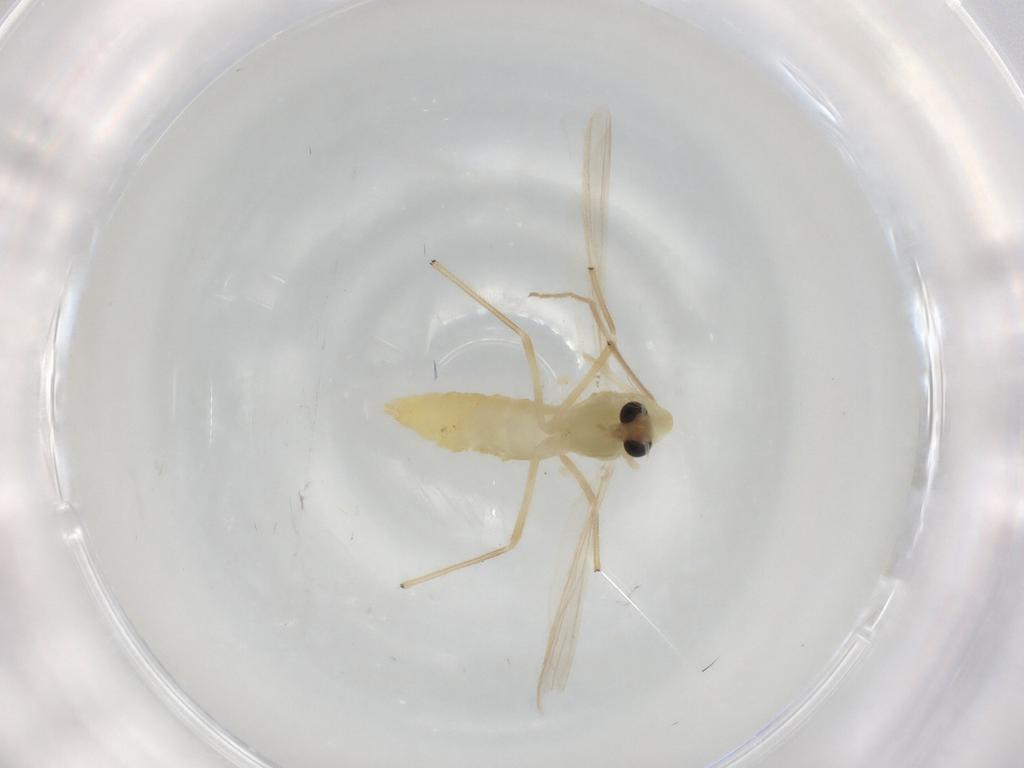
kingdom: Animalia
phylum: Arthropoda
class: Insecta
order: Diptera
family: Chironomidae
